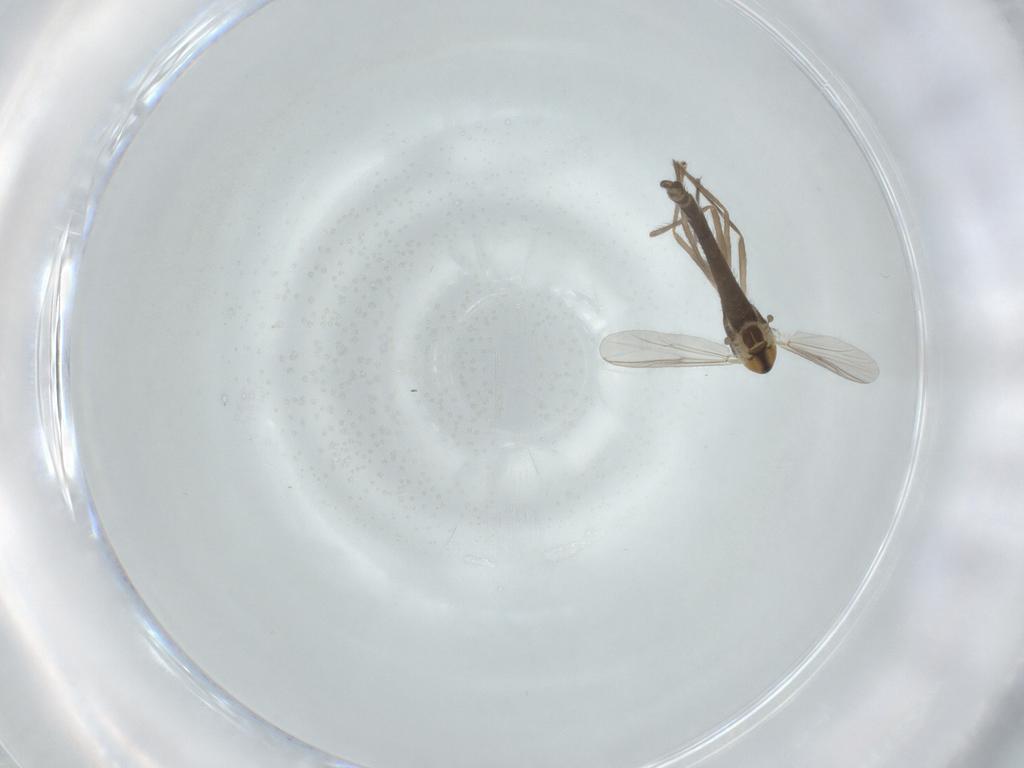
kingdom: Animalia
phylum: Arthropoda
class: Insecta
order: Diptera
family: Chironomidae
